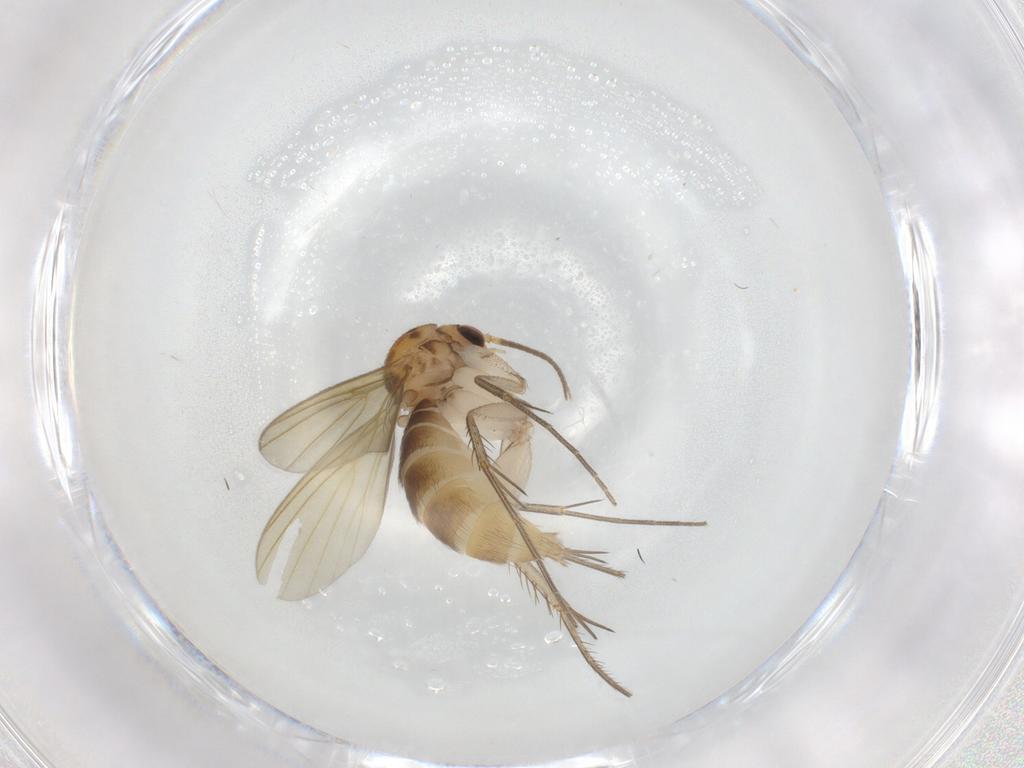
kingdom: Animalia
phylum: Arthropoda
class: Insecta
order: Diptera
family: Mycetophilidae
